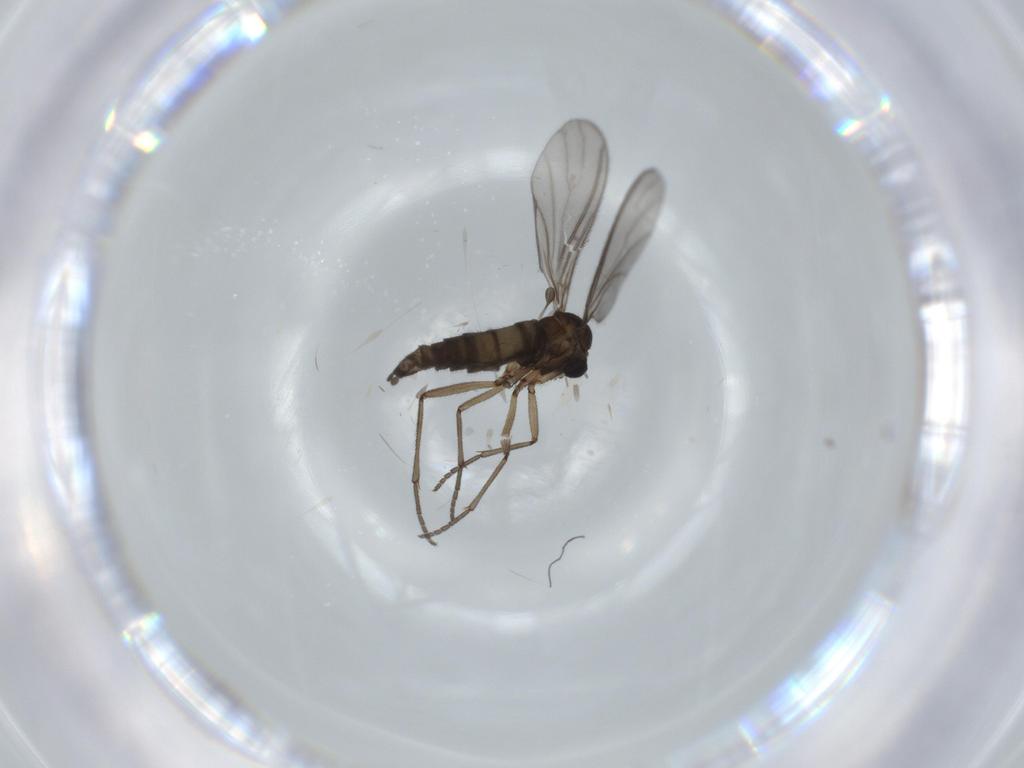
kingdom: Animalia
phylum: Arthropoda
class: Insecta
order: Diptera
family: Sciaridae
